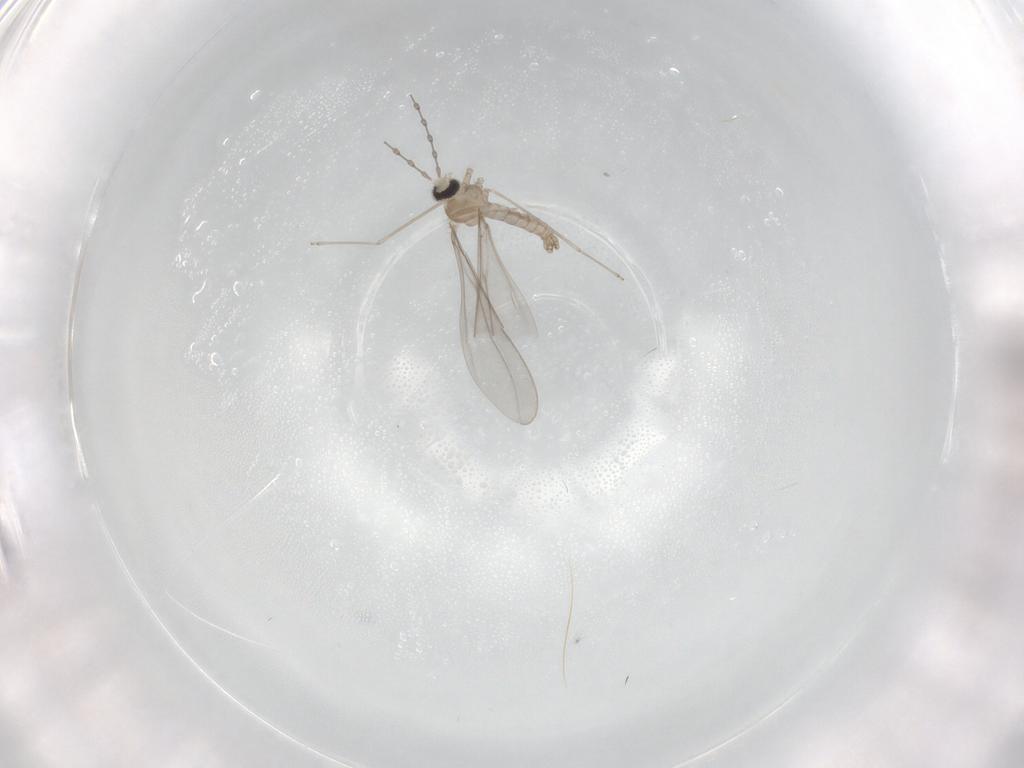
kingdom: Animalia
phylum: Arthropoda
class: Insecta
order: Diptera
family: Cecidomyiidae
